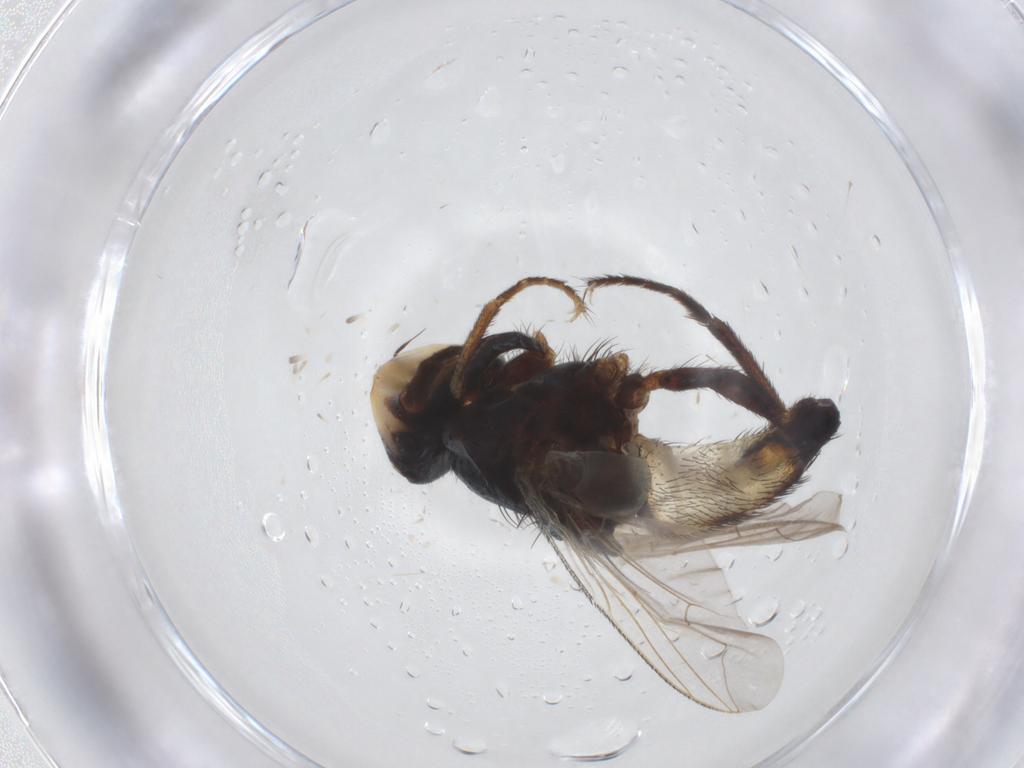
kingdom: Animalia
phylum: Arthropoda
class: Insecta
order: Diptera
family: Sarcophagidae
